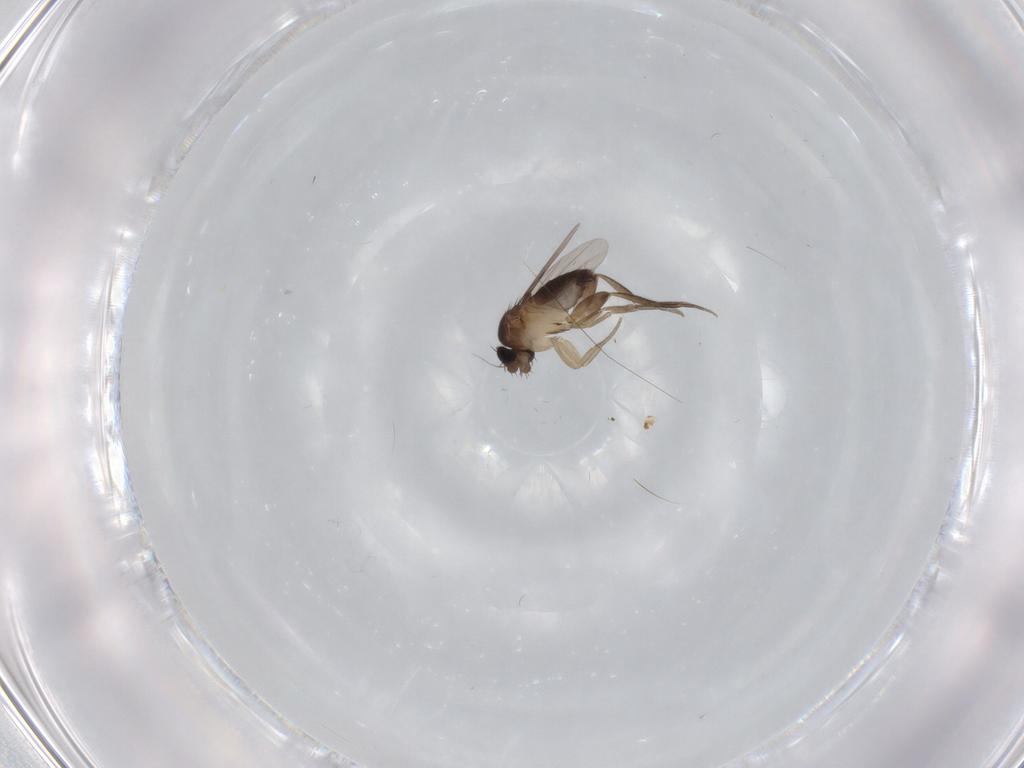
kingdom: Animalia
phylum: Arthropoda
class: Insecta
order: Diptera
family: Phoridae
